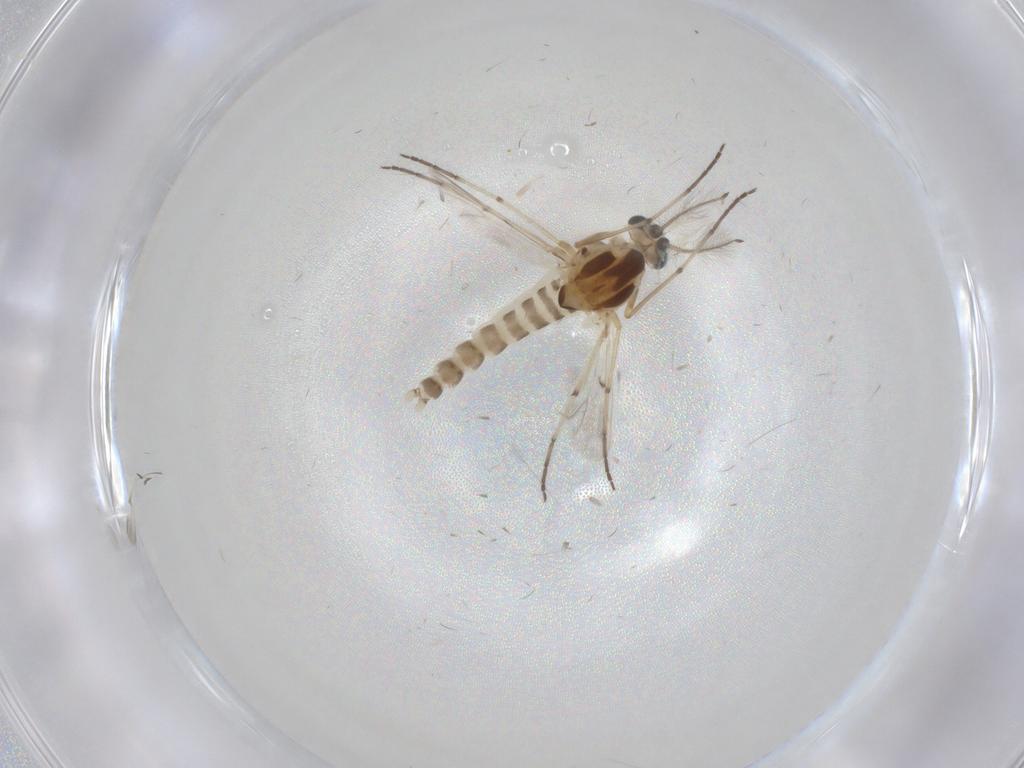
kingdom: Animalia
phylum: Arthropoda
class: Insecta
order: Diptera
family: Chironomidae
